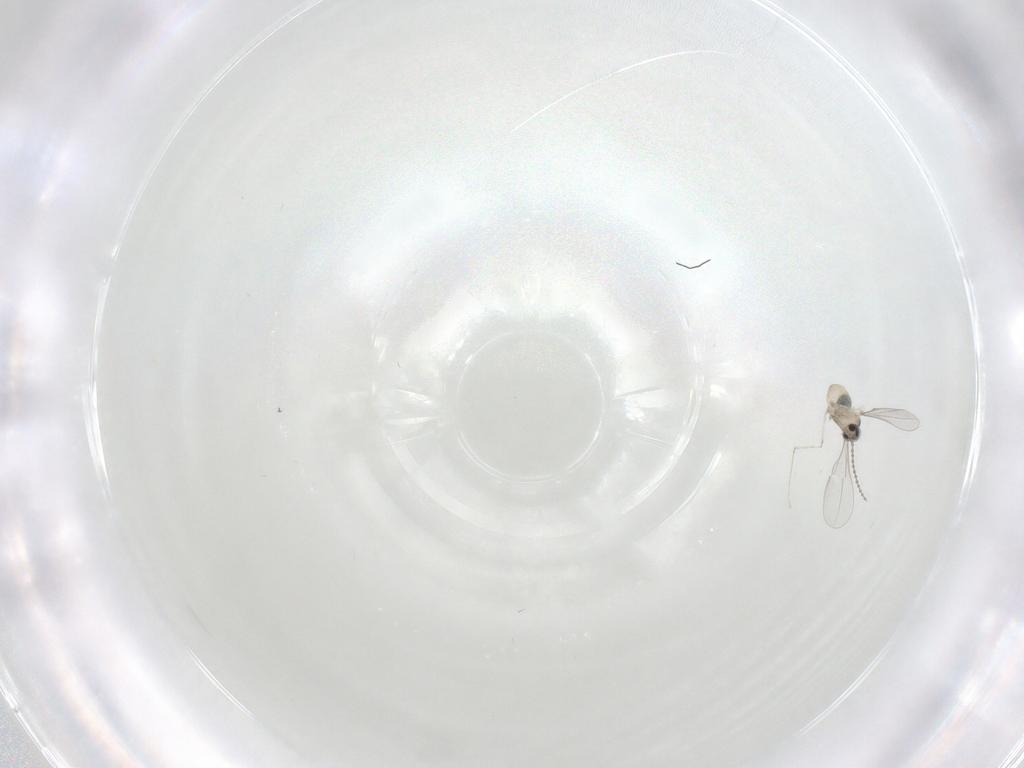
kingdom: Animalia
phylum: Arthropoda
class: Insecta
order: Diptera
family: Cecidomyiidae
